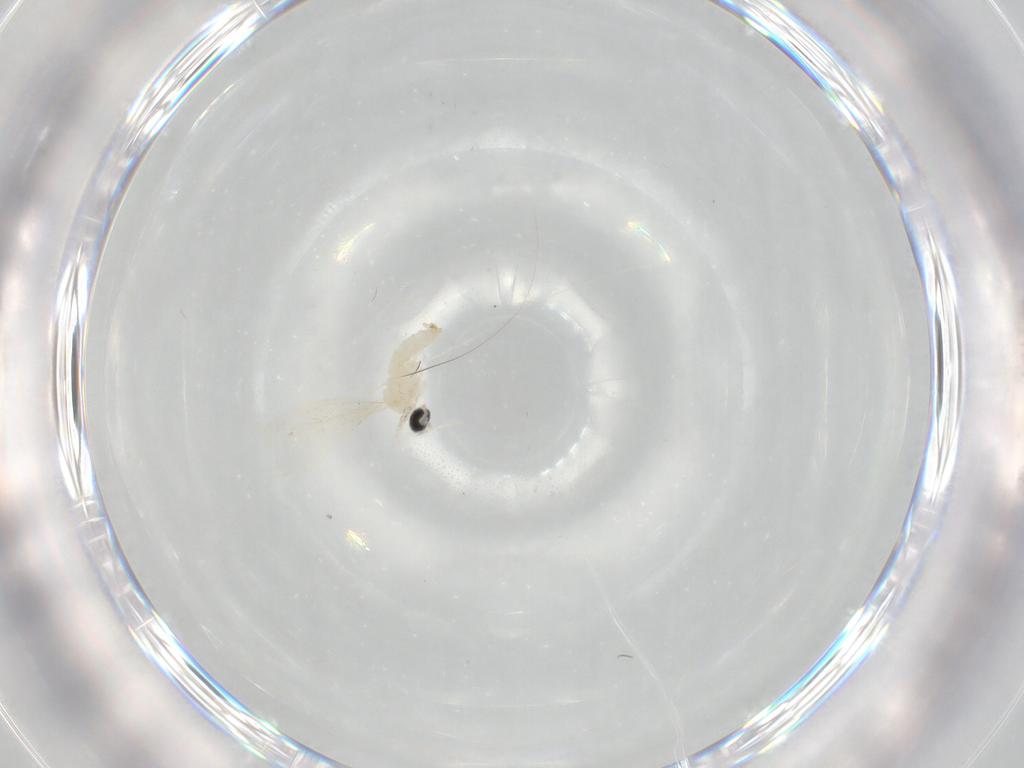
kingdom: Animalia
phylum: Arthropoda
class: Insecta
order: Diptera
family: Cecidomyiidae
